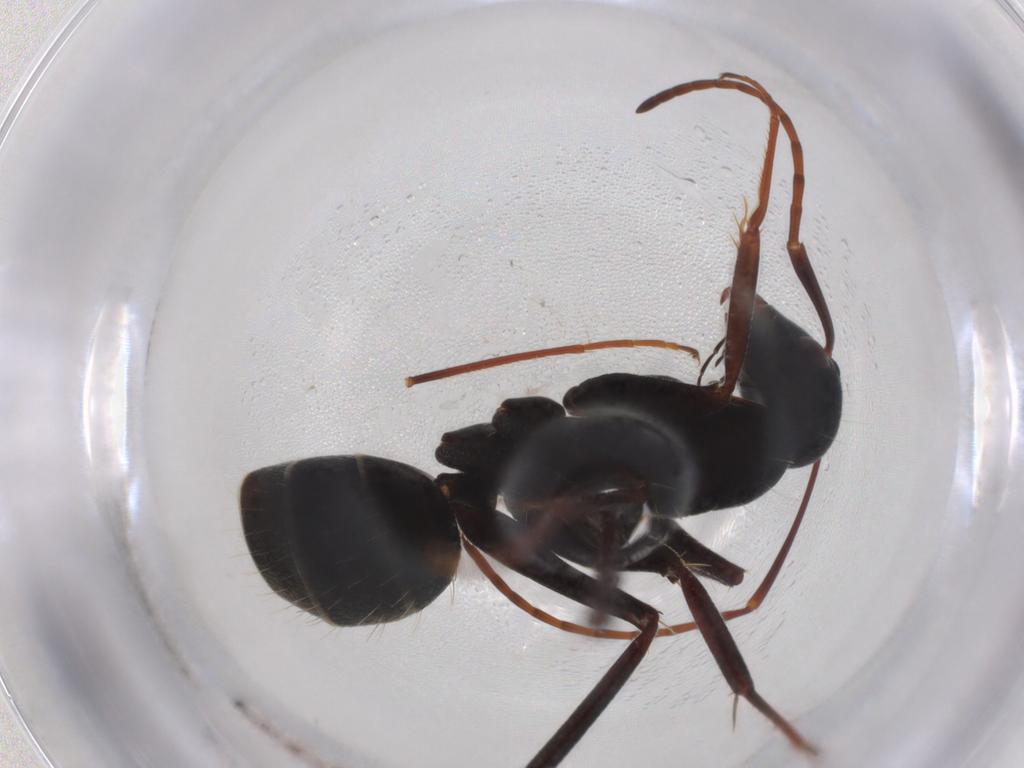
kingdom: Animalia
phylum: Arthropoda
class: Insecta
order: Hymenoptera
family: Formicidae
